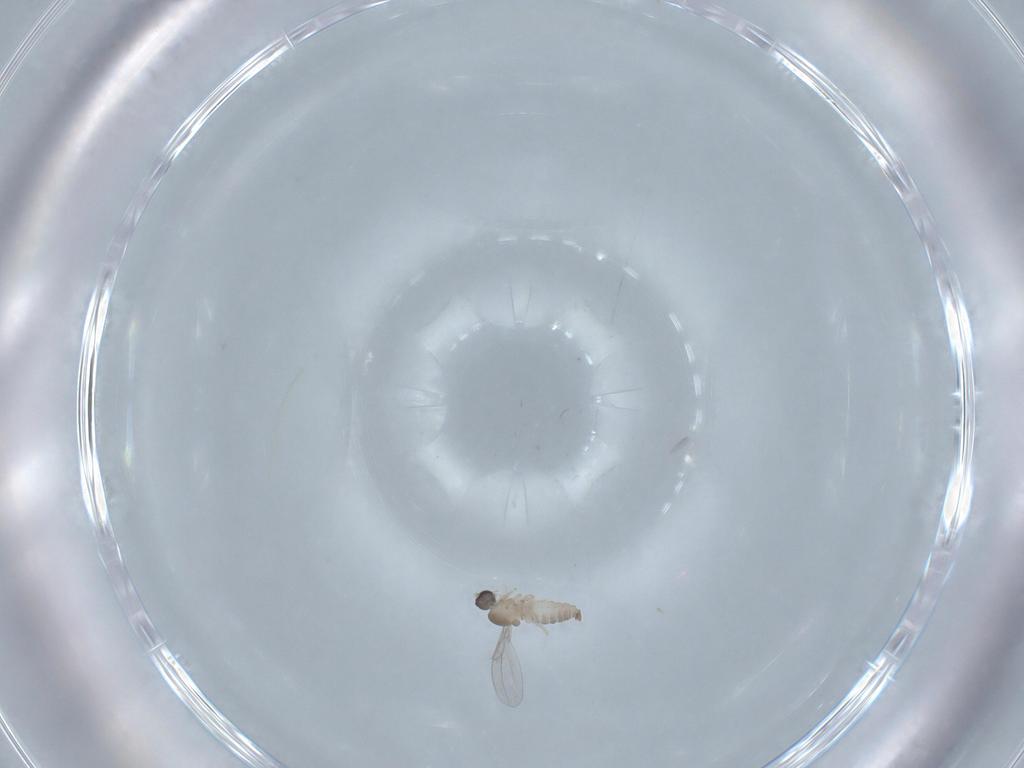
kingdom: Animalia
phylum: Arthropoda
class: Insecta
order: Diptera
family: Cecidomyiidae
